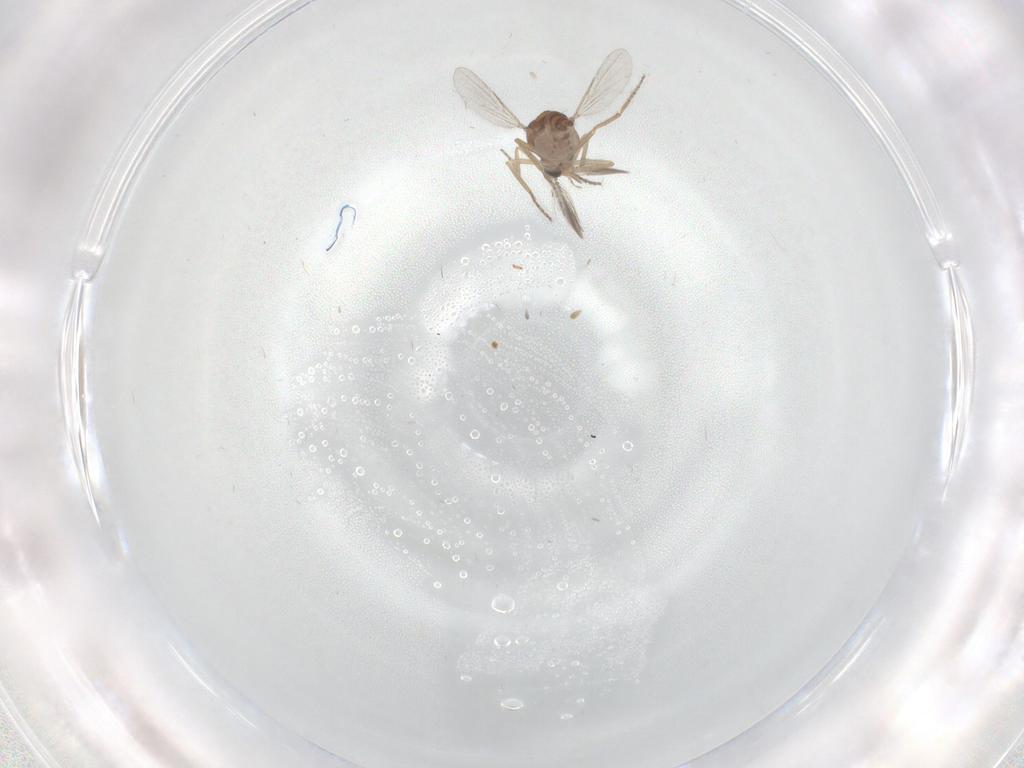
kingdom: Animalia
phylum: Arthropoda
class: Insecta
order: Diptera
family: Ceratopogonidae
